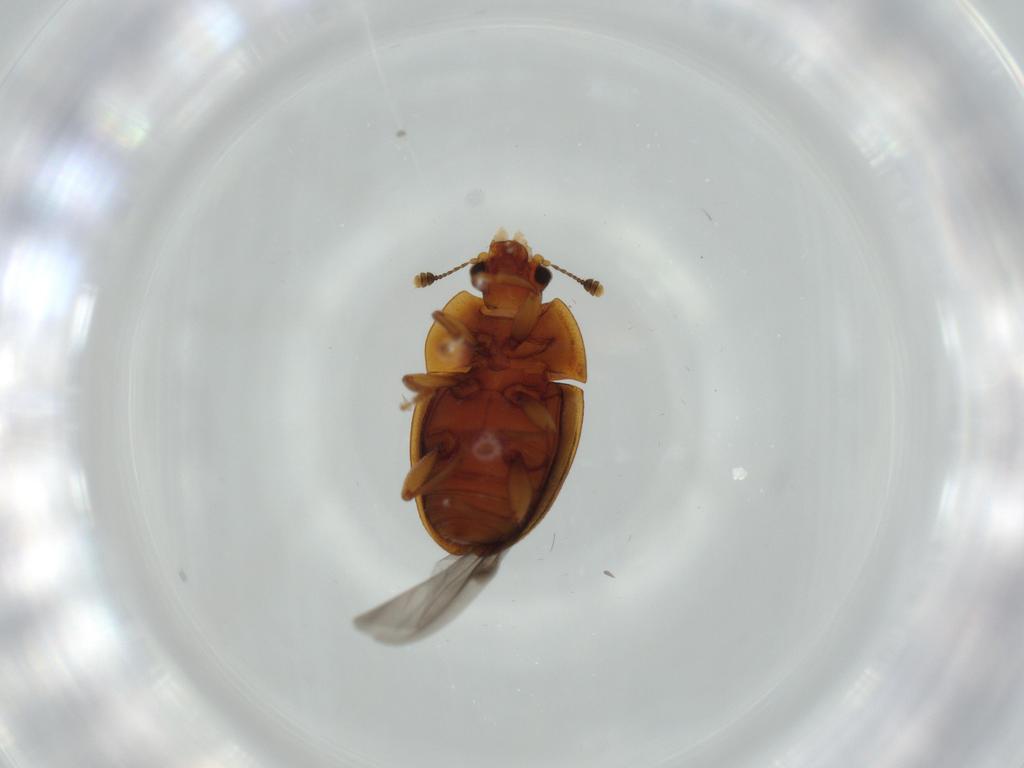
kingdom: Animalia
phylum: Arthropoda
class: Insecta
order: Coleoptera
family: Nitidulidae
